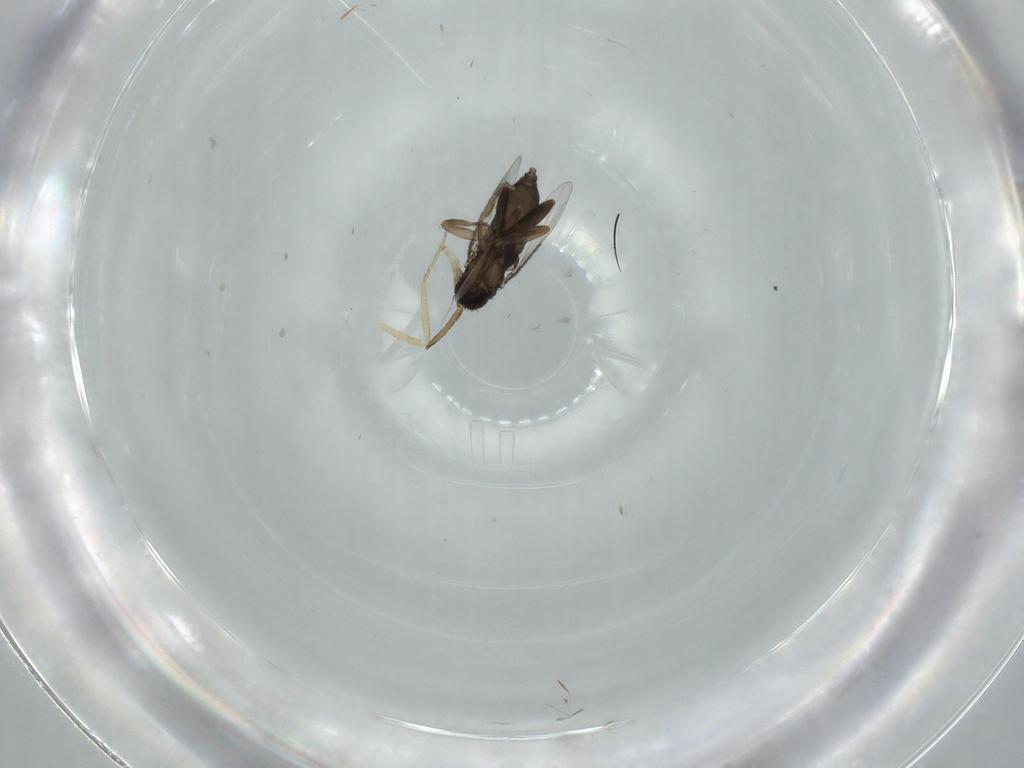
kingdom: Animalia
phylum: Arthropoda
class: Insecta
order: Diptera
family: Phoridae
